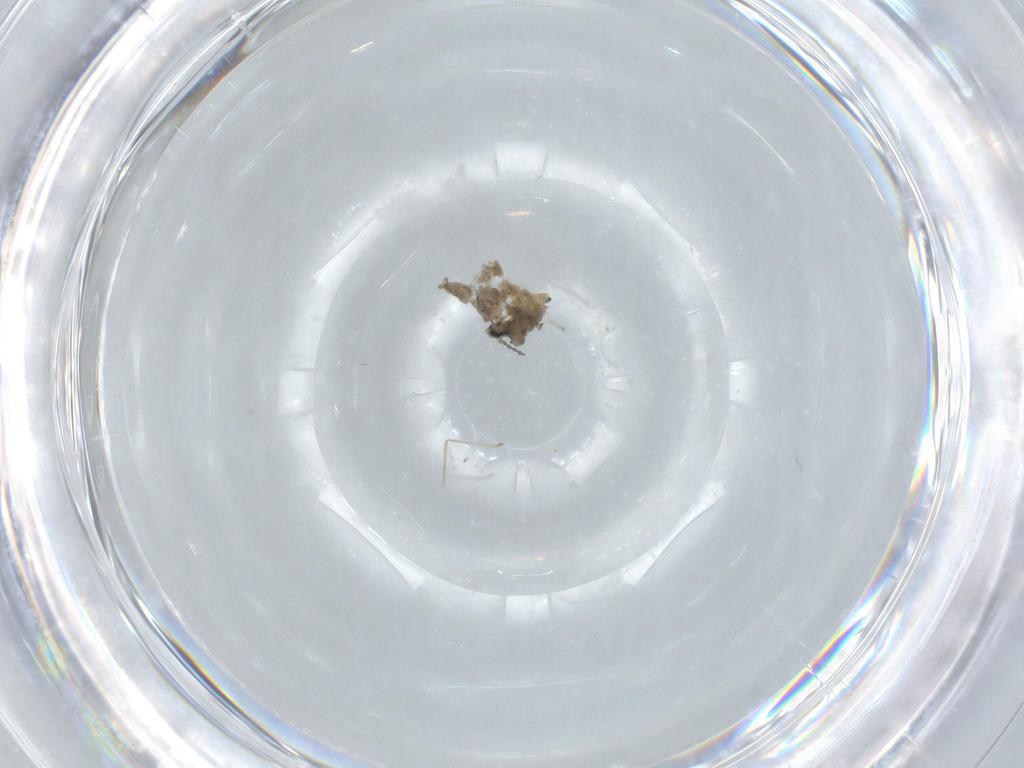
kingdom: Animalia
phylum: Arthropoda
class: Insecta
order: Diptera
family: Cecidomyiidae
